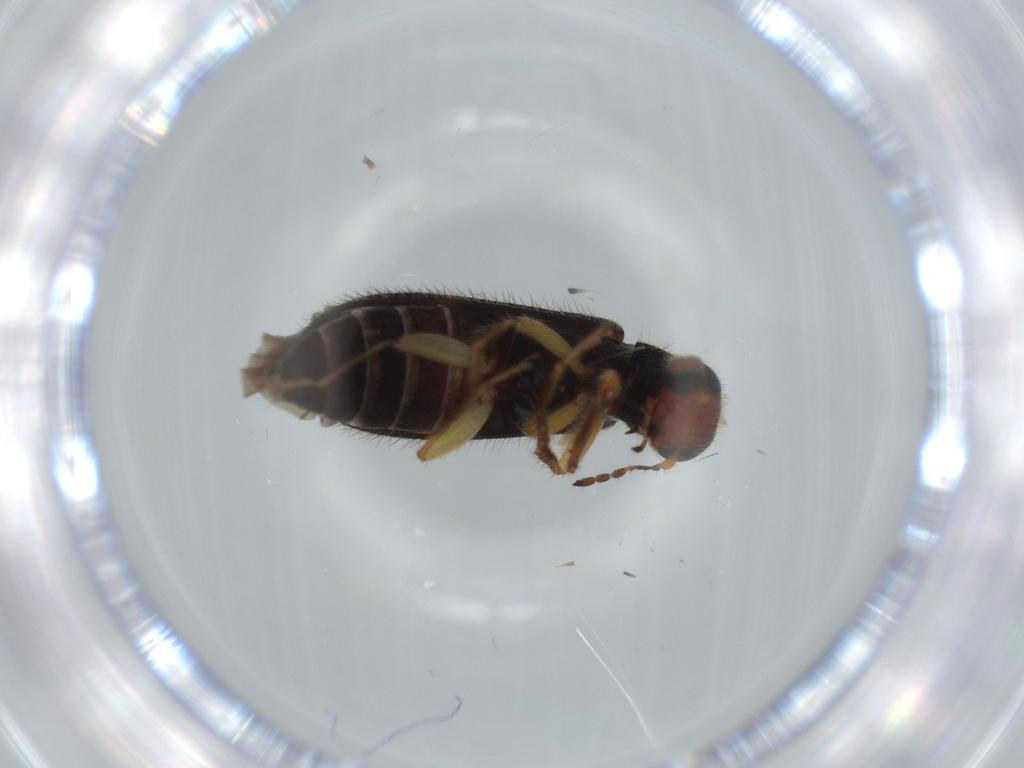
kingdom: Animalia
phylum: Arthropoda
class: Insecta
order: Coleoptera
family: Cleridae
